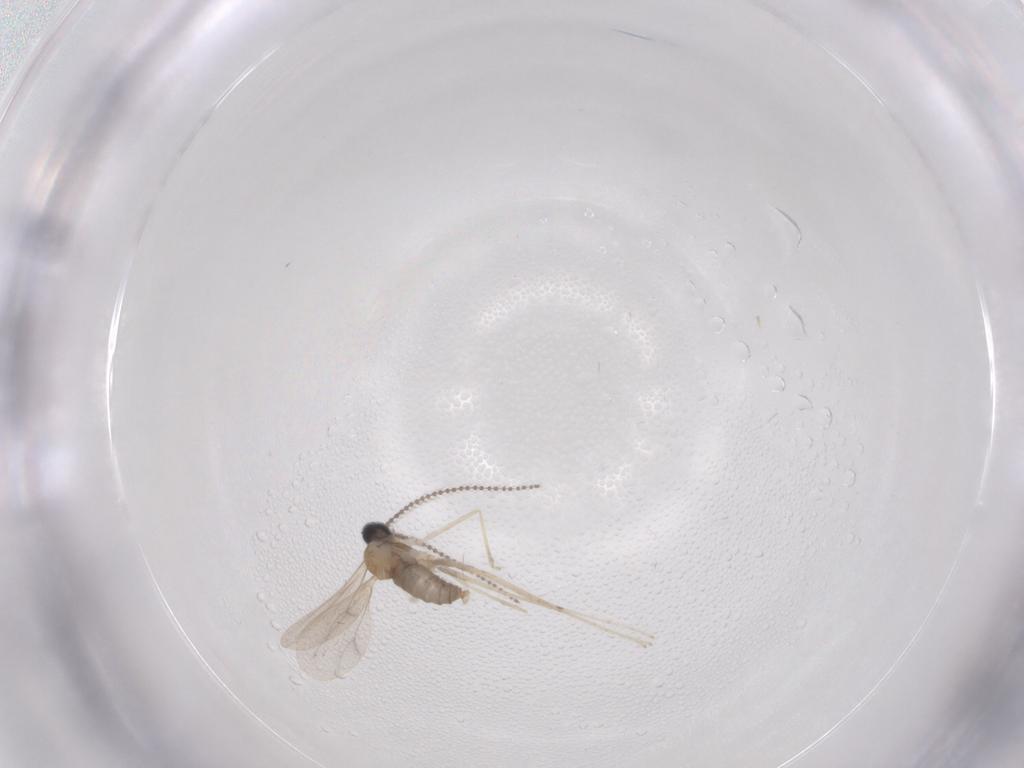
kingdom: Animalia
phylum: Arthropoda
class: Insecta
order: Diptera
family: Cecidomyiidae
